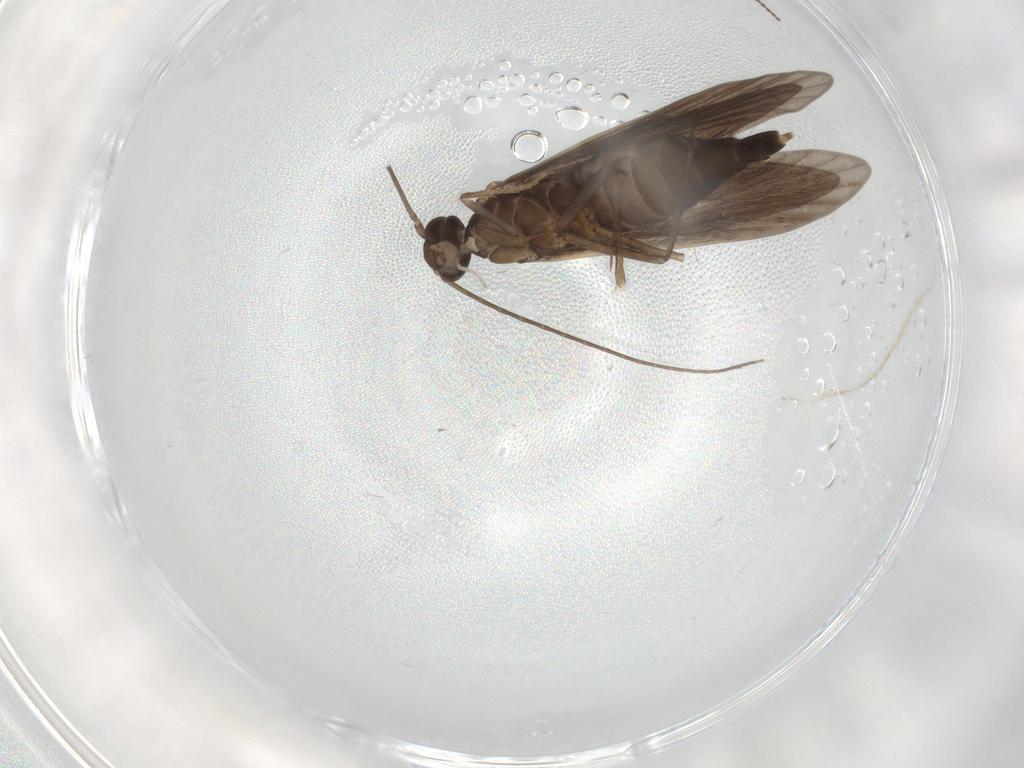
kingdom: Animalia
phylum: Arthropoda
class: Insecta
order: Trichoptera
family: Xiphocentronidae
